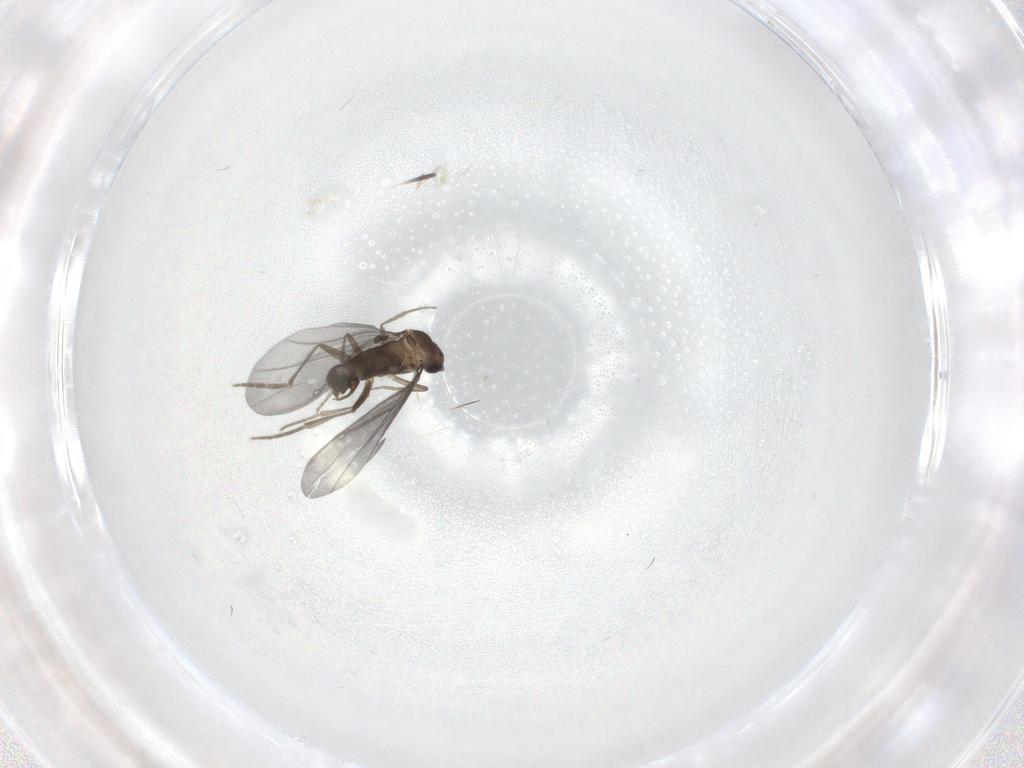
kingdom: Animalia
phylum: Arthropoda
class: Insecta
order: Diptera
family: Phoridae
